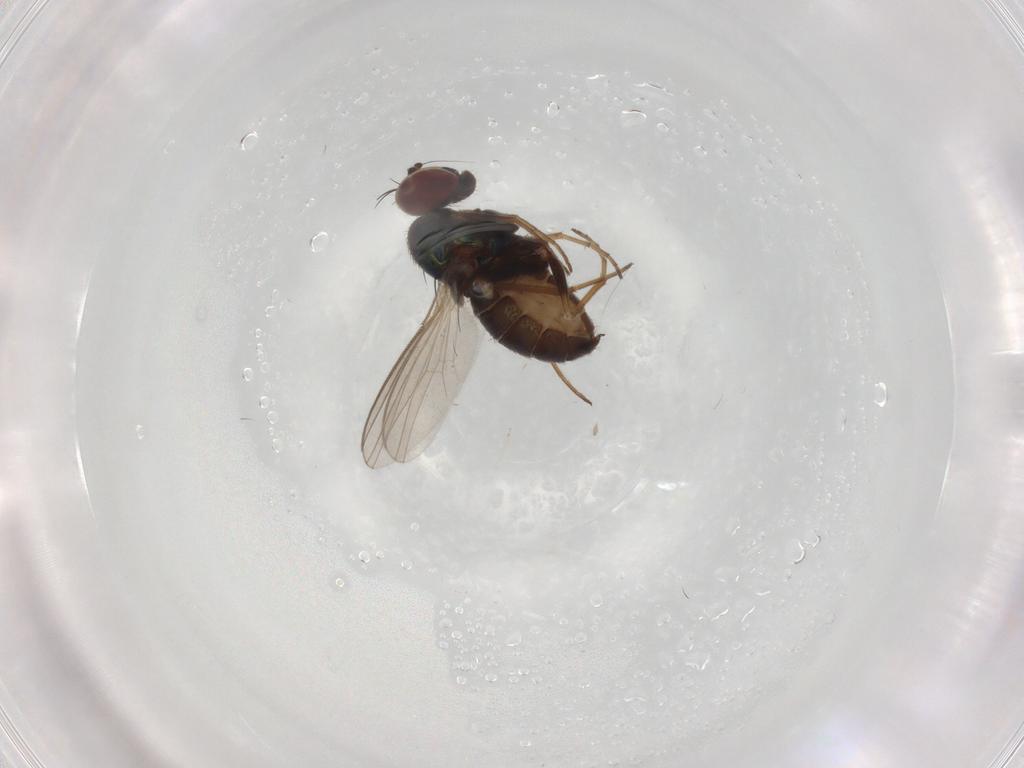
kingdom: Animalia
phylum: Arthropoda
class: Insecta
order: Diptera
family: Dolichopodidae
